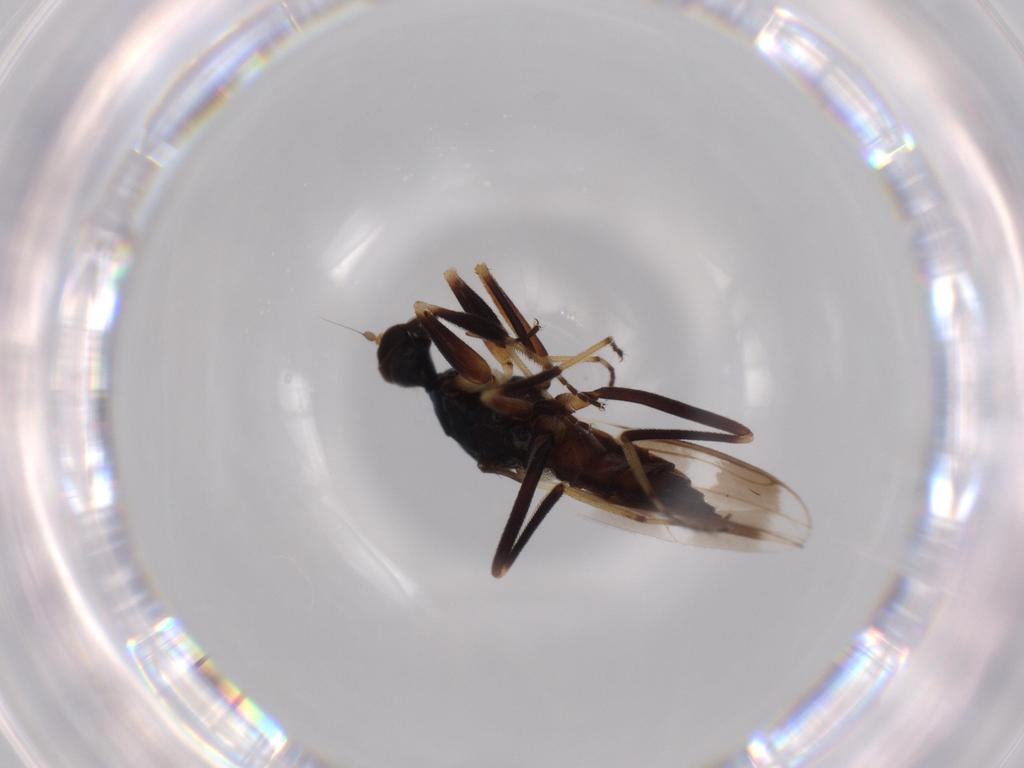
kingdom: Animalia
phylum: Arthropoda
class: Insecta
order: Diptera
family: Hybotidae
